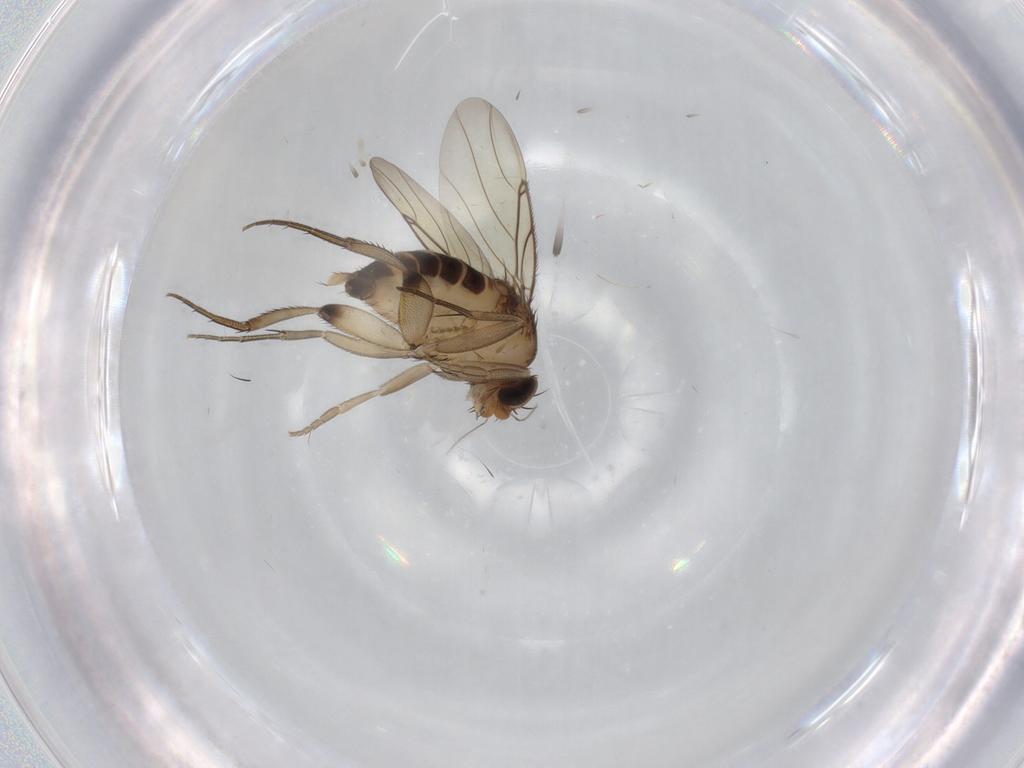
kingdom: Animalia
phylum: Arthropoda
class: Insecta
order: Diptera
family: Phoridae
